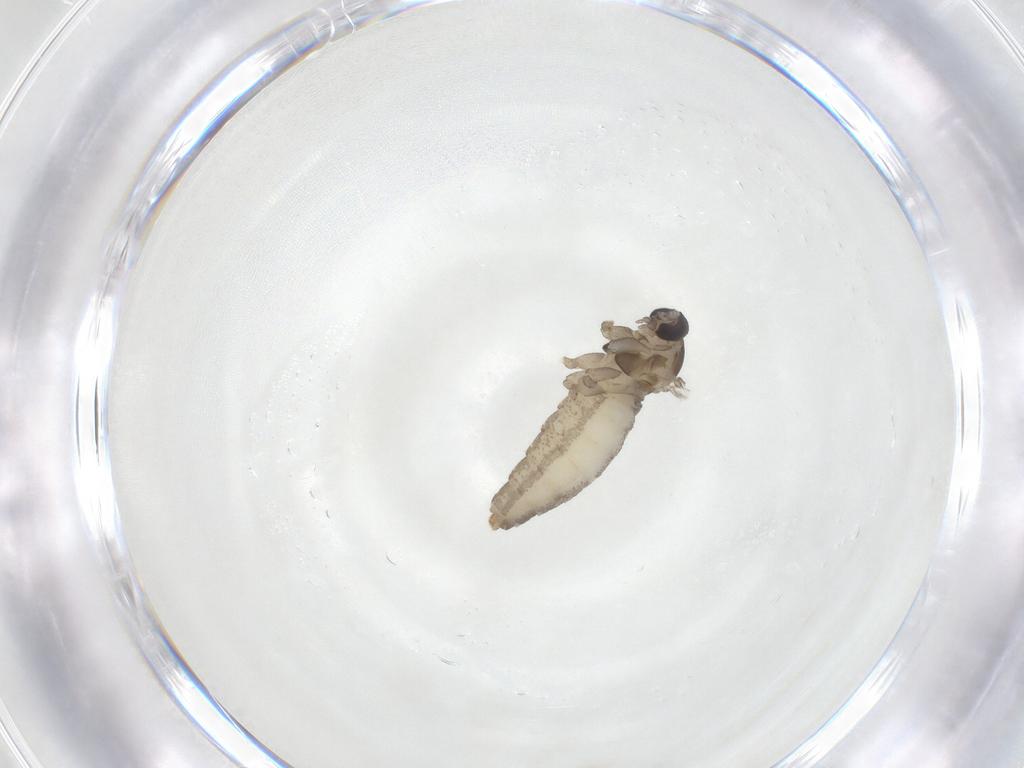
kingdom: Animalia
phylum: Arthropoda
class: Insecta
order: Diptera
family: Cecidomyiidae
